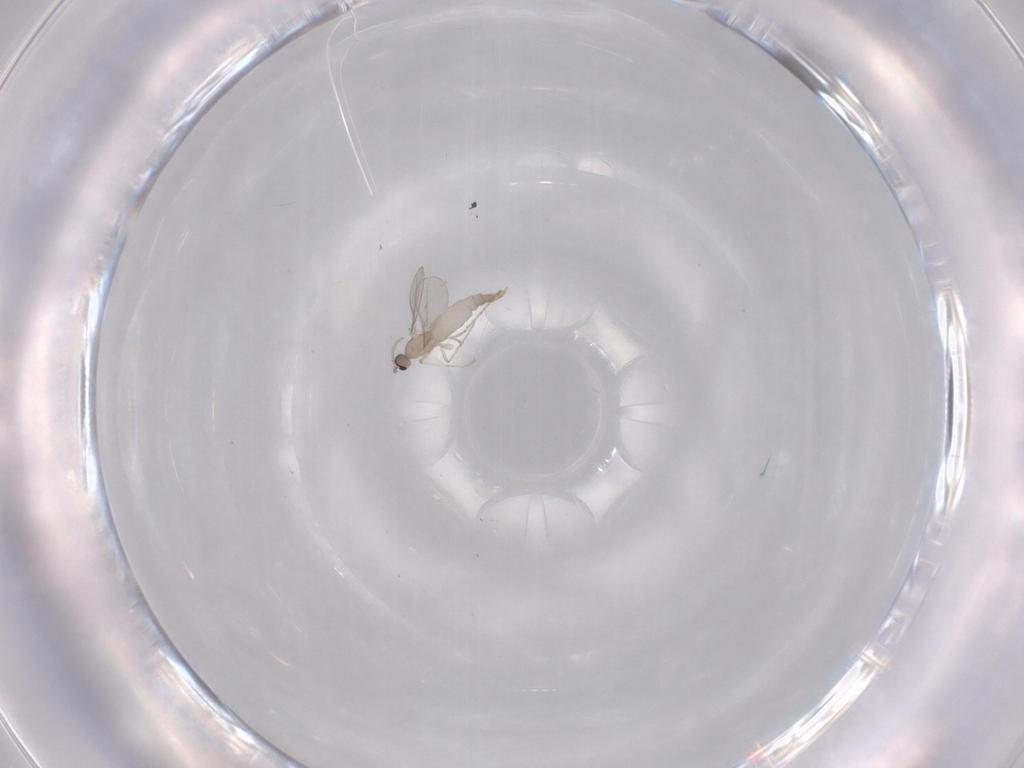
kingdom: Animalia
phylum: Arthropoda
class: Insecta
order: Diptera
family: Cecidomyiidae
